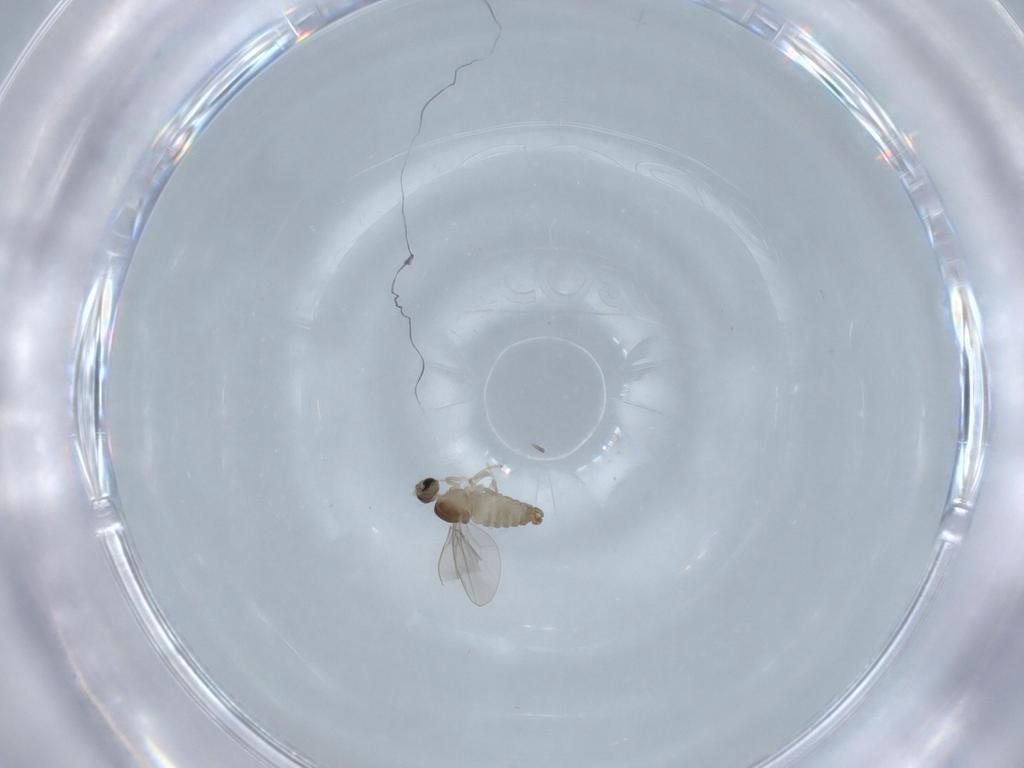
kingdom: Animalia
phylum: Arthropoda
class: Insecta
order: Diptera
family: Cecidomyiidae
